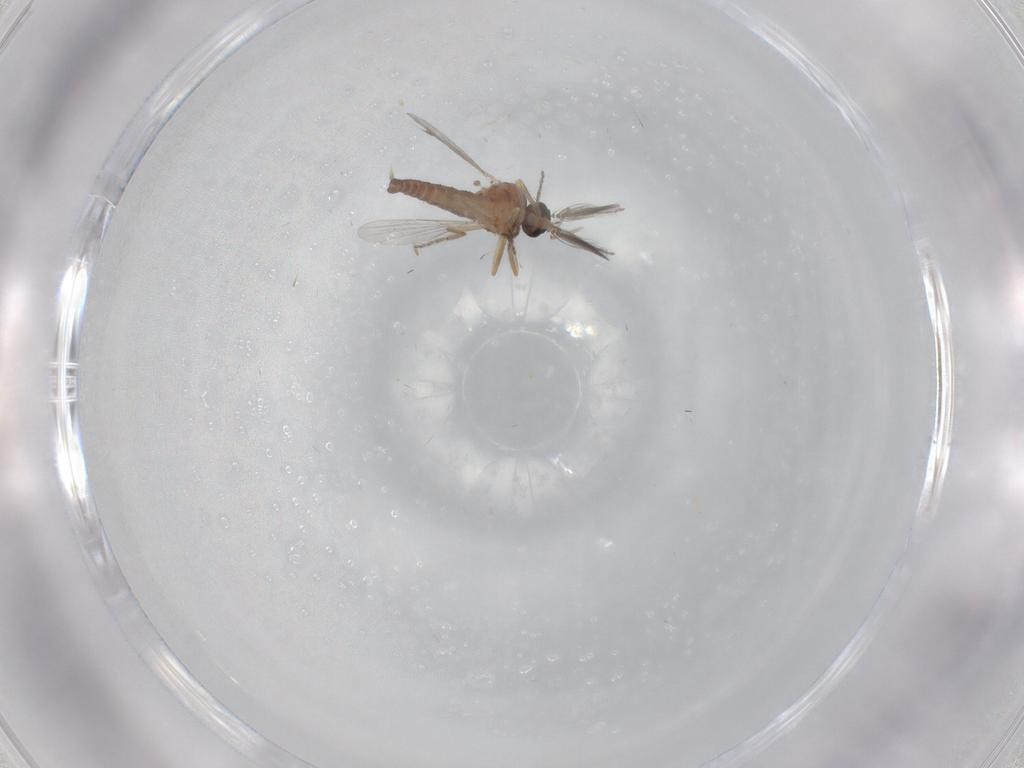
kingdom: Animalia
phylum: Arthropoda
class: Insecta
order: Diptera
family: Ceratopogonidae
